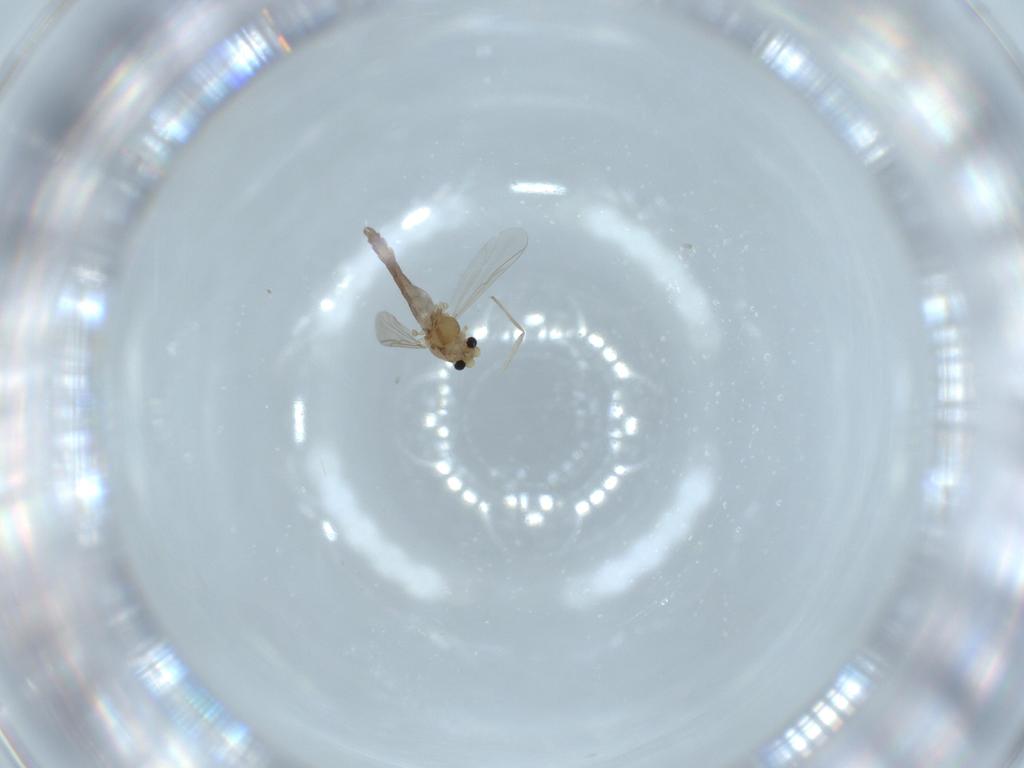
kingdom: Animalia
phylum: Arthropoda
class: Insecta
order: Diptera
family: Chironomidae
